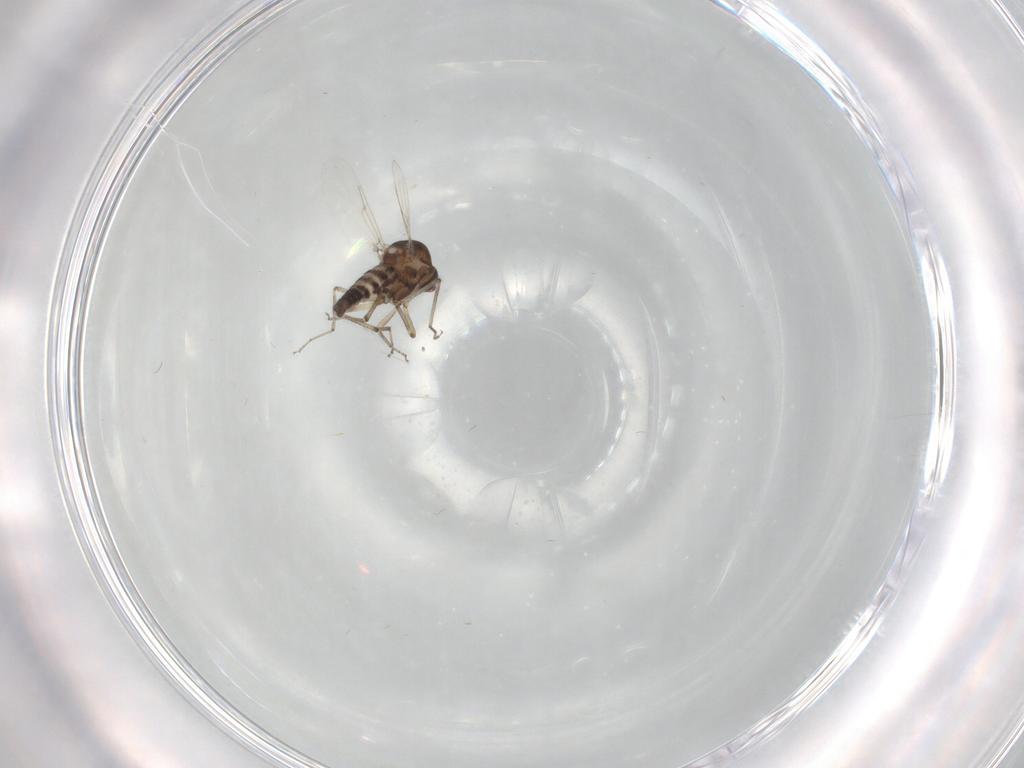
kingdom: Animalia
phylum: Arthropoda
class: Insecta
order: Diptera
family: Ceratopogonidae
